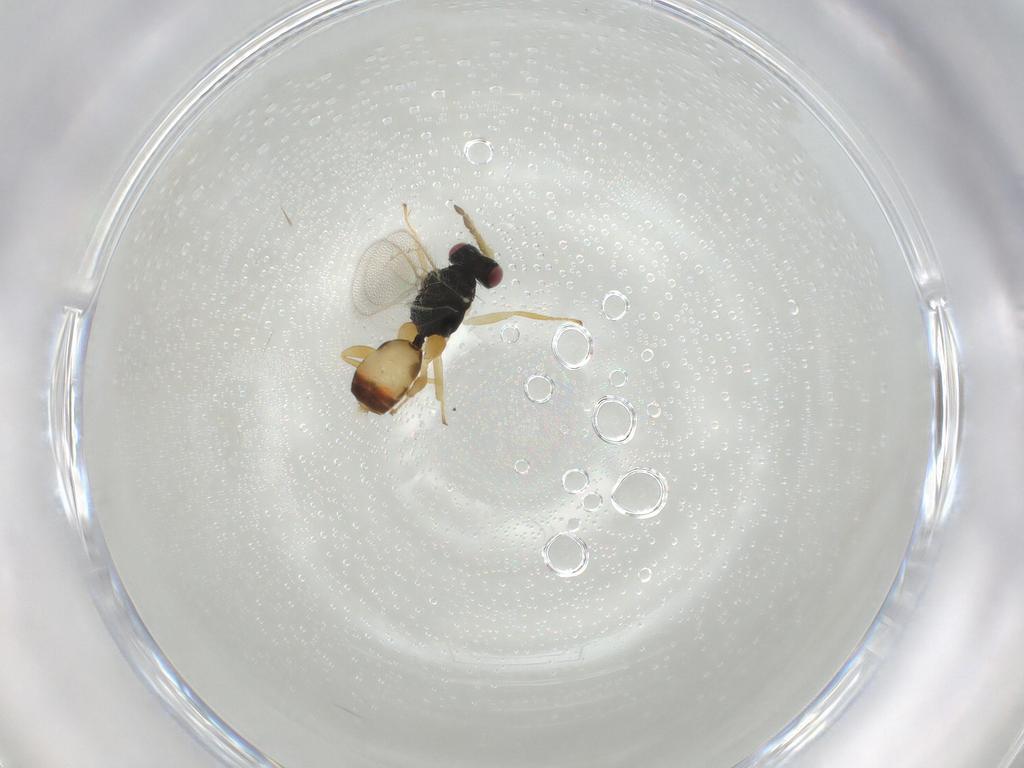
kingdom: Animalia
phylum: Arthropoda
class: Insecta
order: Hymenoptera
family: Eulophidae
